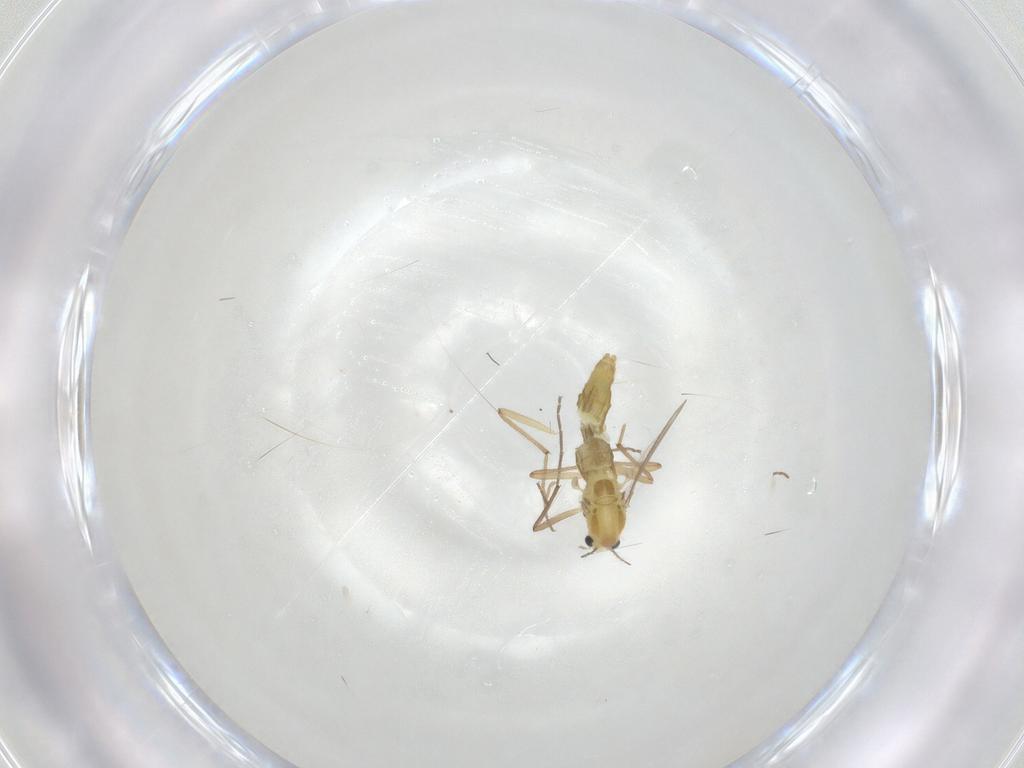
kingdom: Animalia
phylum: Arthropoda
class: Insecta
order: Diptera
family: Chironomidae
